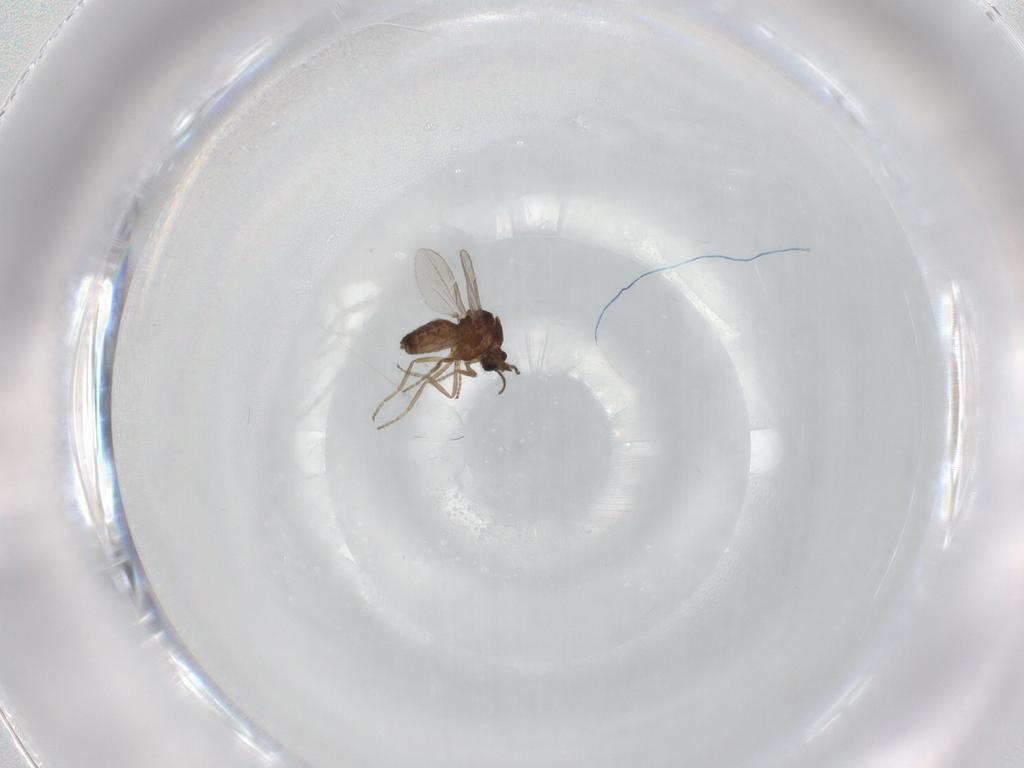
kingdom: Animalia
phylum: Arthropoda
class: Insecta
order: Diptera
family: Ceratopogonidae
